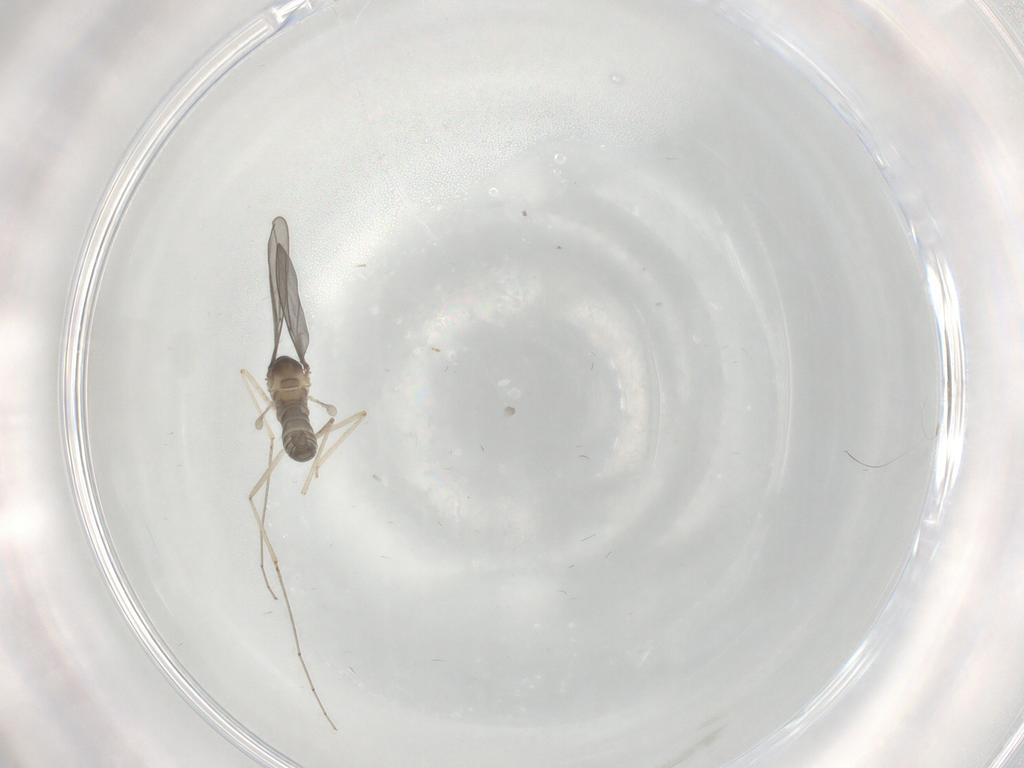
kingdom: Animalia
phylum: Arthropoda
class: Insecta
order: Diptera
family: Cecidomyiidae
